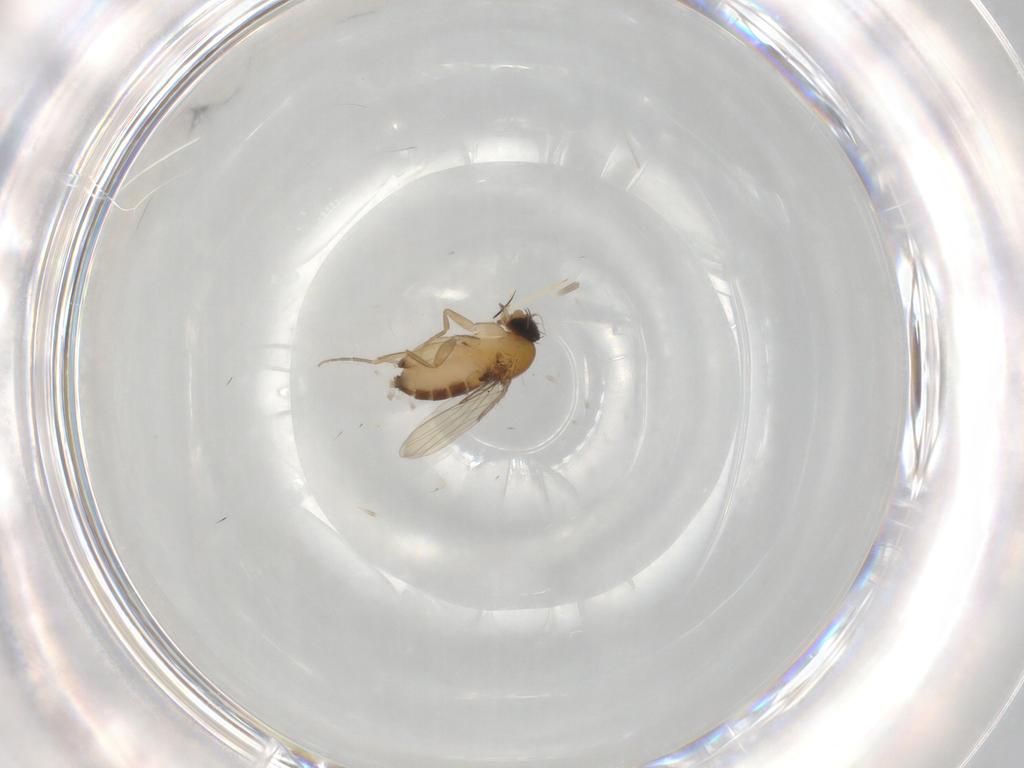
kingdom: Animalia
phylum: Arthropoda
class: Insecta
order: Diptera
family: Sciaridae
